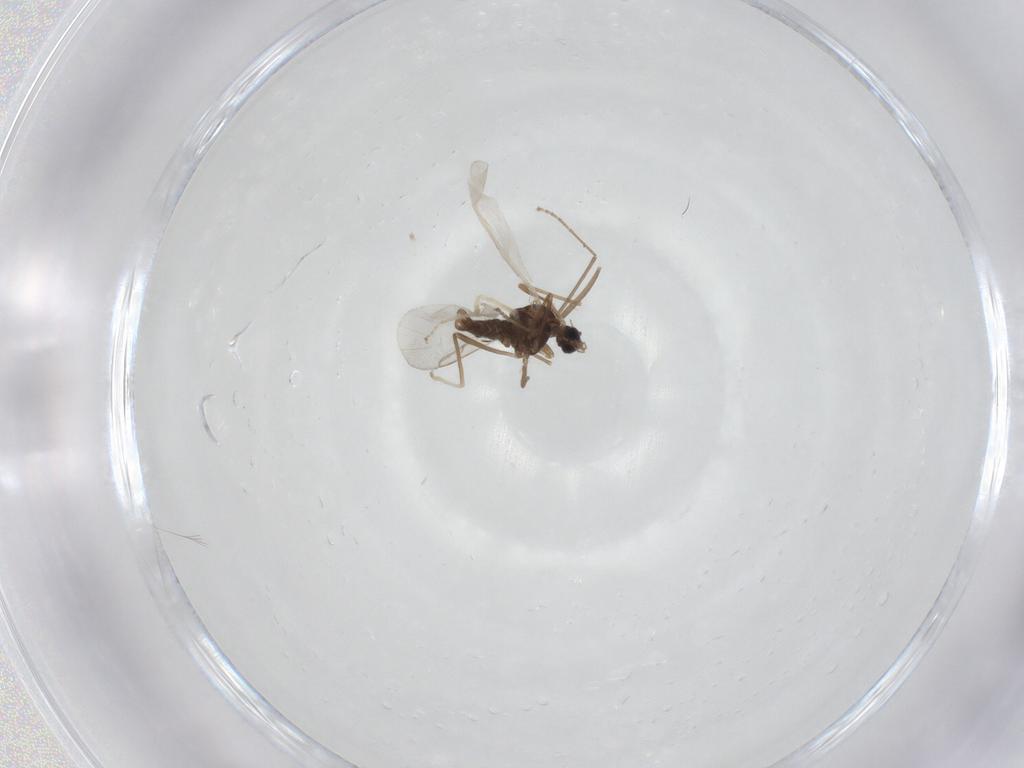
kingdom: Animalia
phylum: Arthropoda
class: Insecta
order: Diptera
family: Cecidomyiidae
